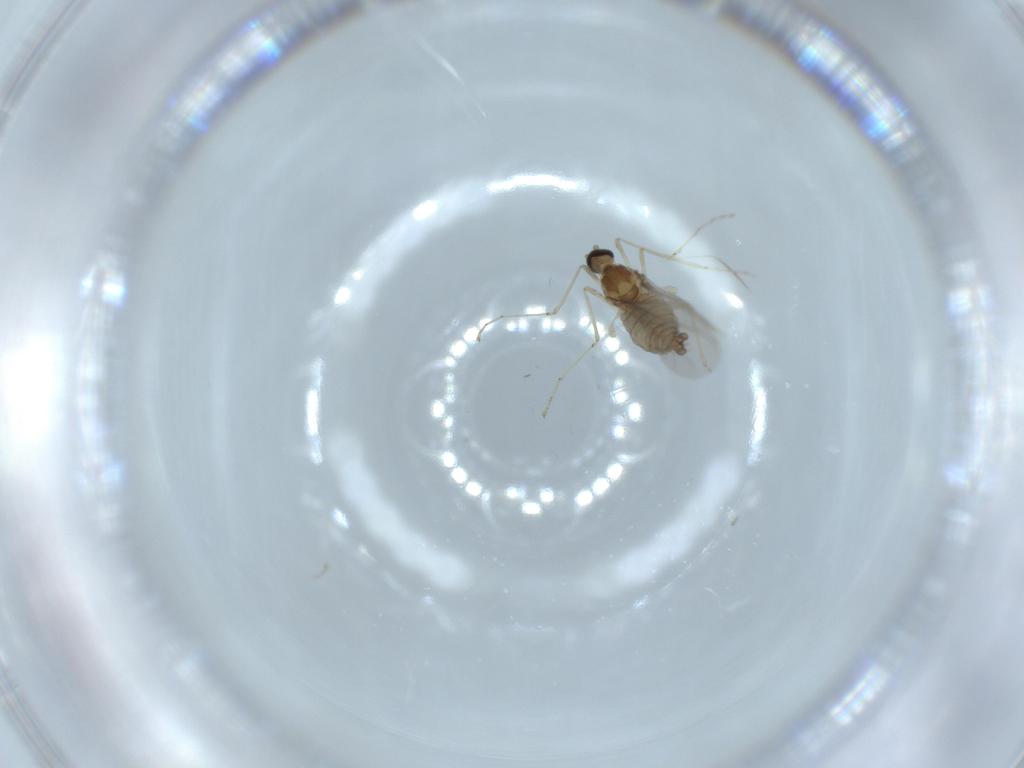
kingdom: Animalia
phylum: Arthropoda
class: Insecta
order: Diptera
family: Cecidomyiidae
